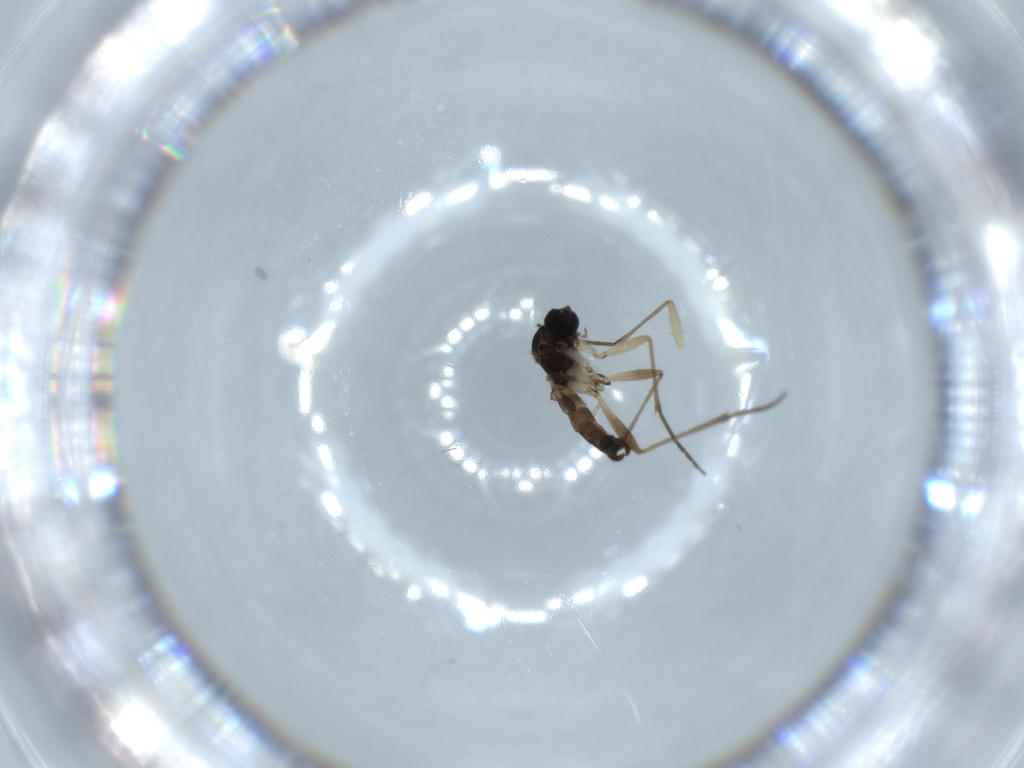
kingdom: Animalia
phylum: Arthropoda
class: Insecta
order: Diptera
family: Sciaridae
